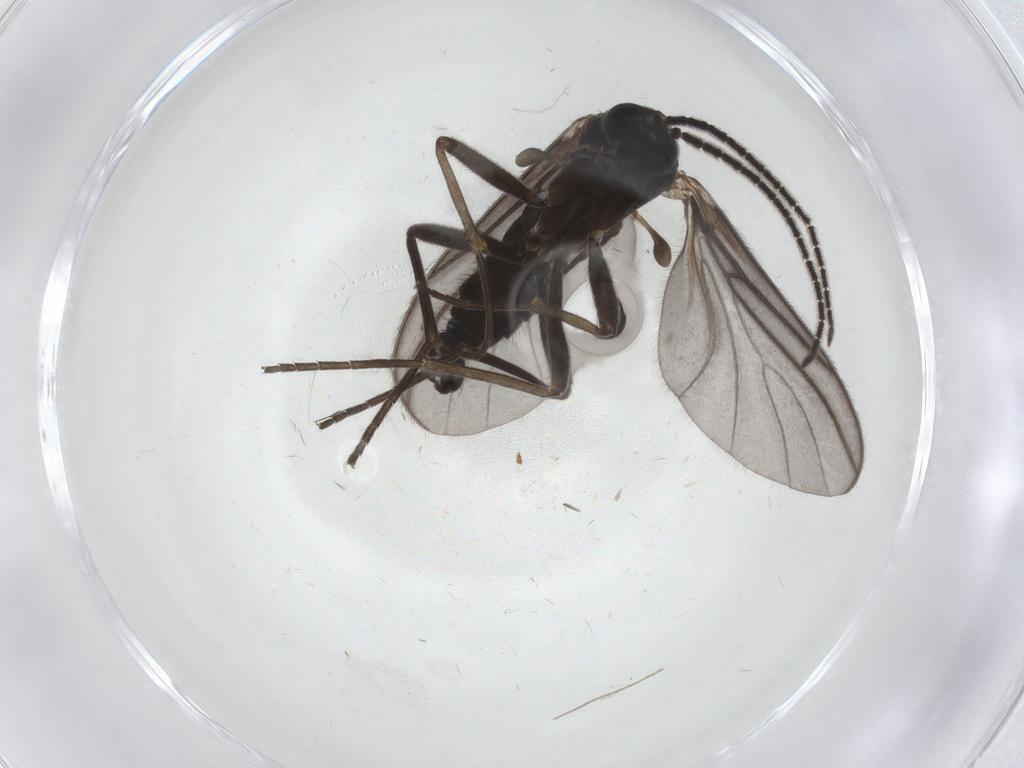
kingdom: Animalia
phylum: Arthropoda
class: Insecta
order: Diptera
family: Sciaridae
